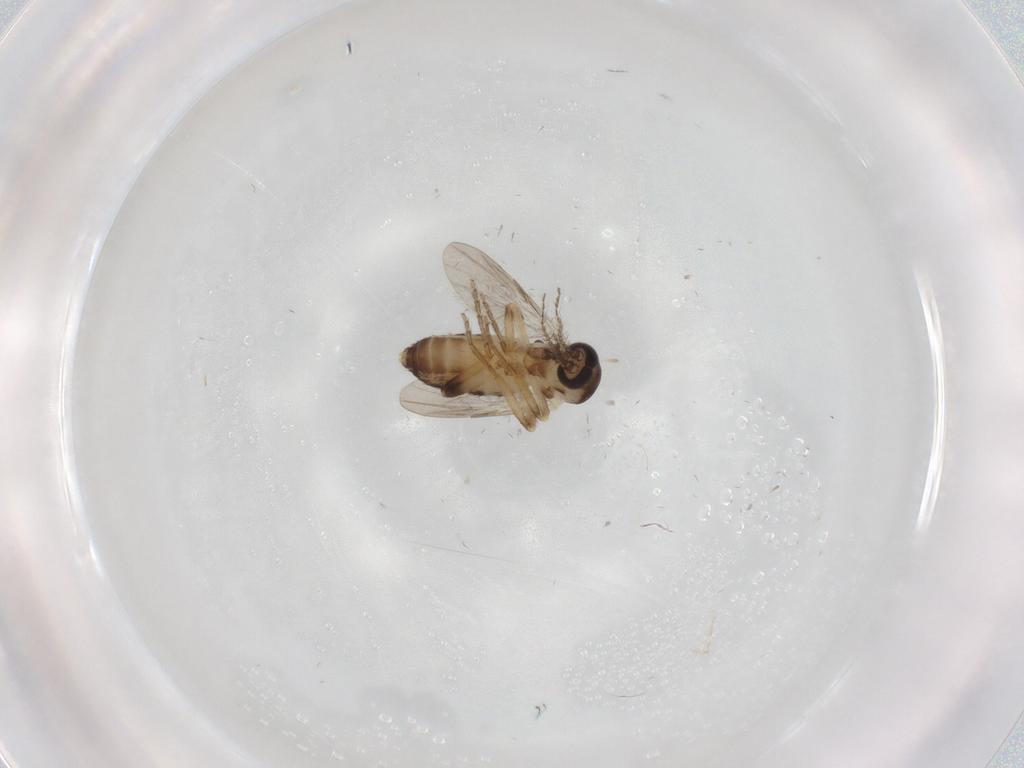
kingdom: Animalia
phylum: Arthropoda
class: Insecta
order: Diptera
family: Ceratopogonidae
